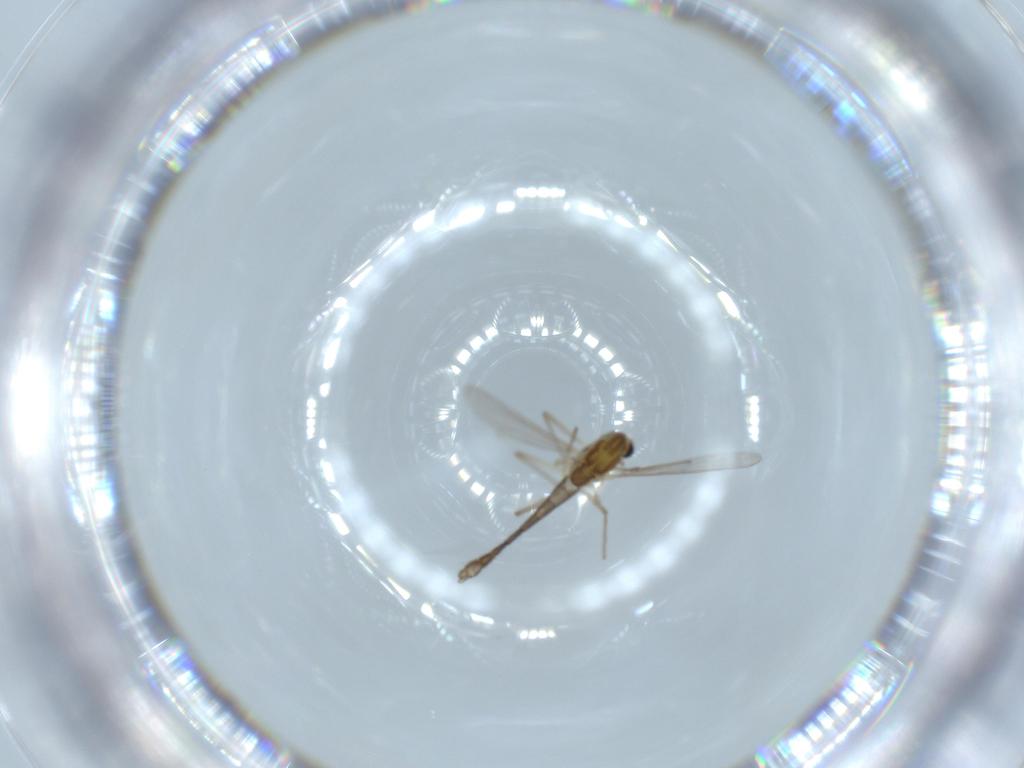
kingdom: Animalia
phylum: Arthropoda
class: Insecta
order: Diptera
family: Chironomidae
